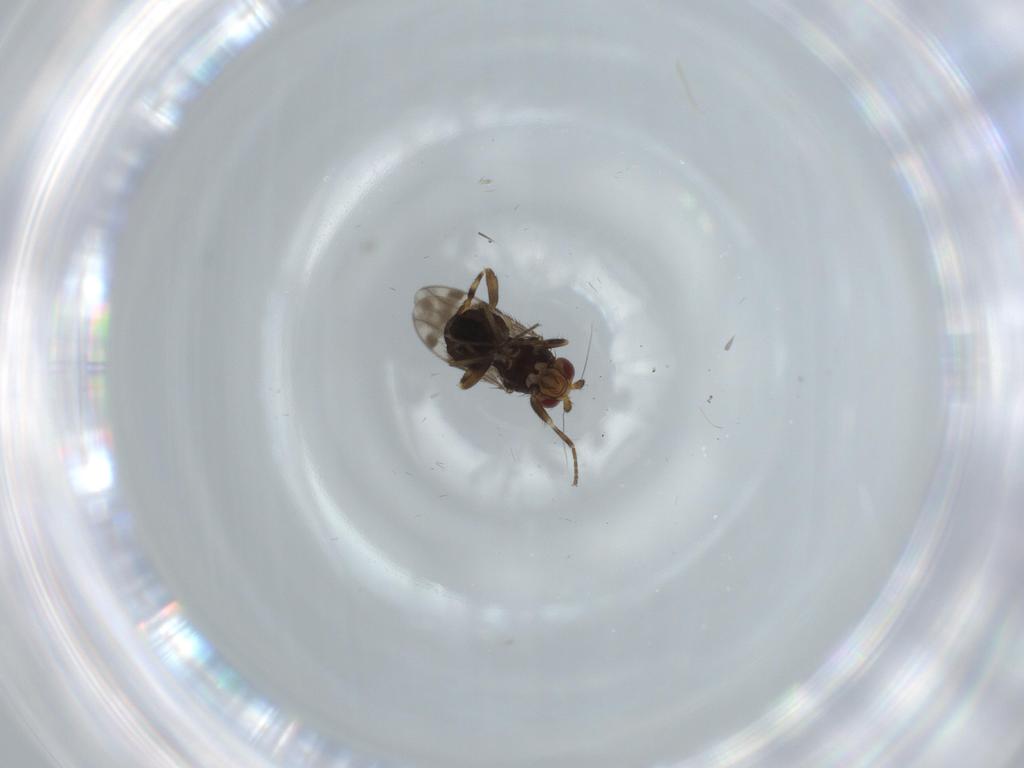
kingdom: Animalia
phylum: Arthropoda
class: Insecta
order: Diptera
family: Sphaeroceridae
